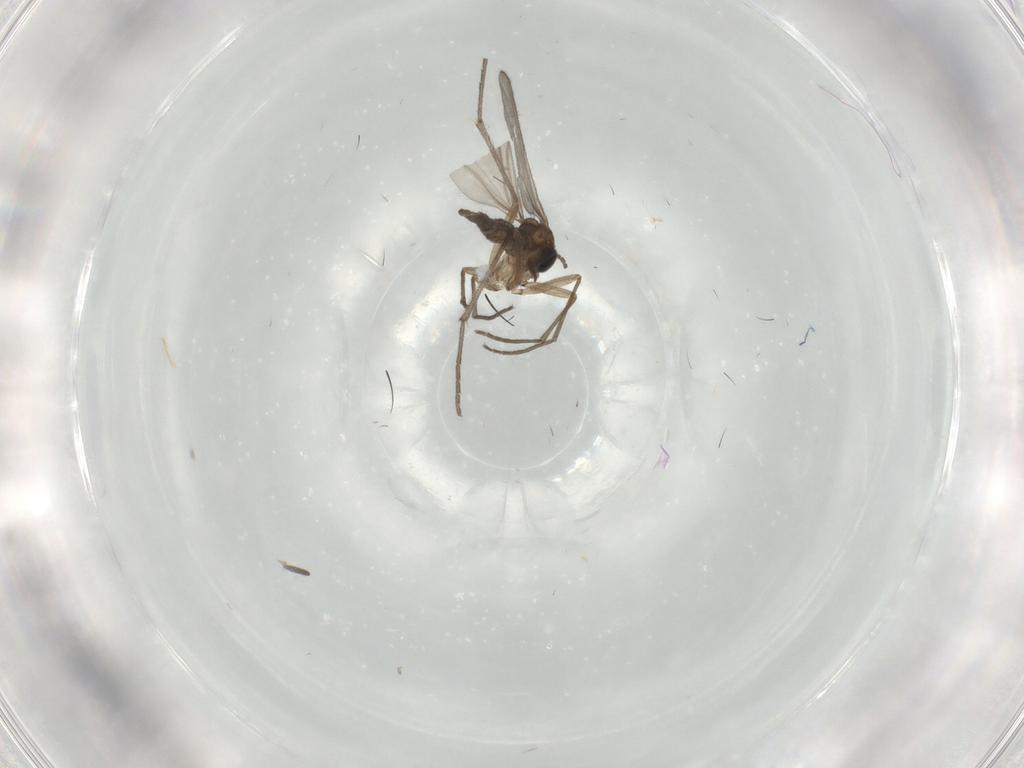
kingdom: Animalia
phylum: Arthropoda
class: Insecta
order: Diptera
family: Sciaridae
